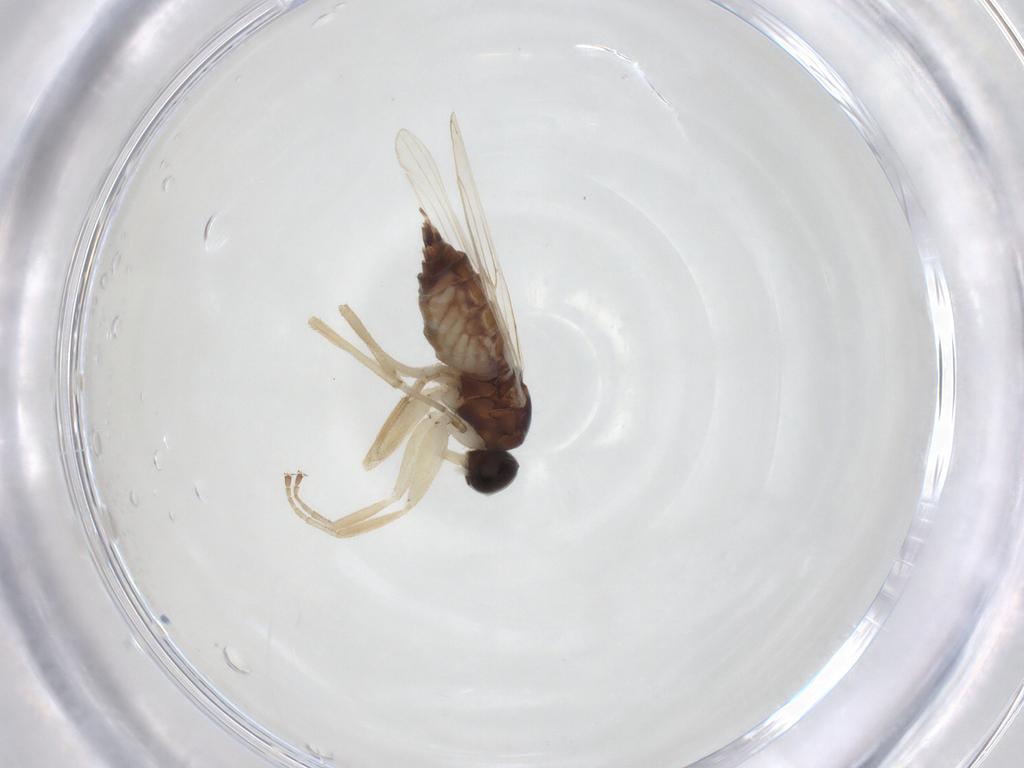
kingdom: Animalia
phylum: Arthropoda
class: Insecta
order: Diptera
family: Hybotidae
